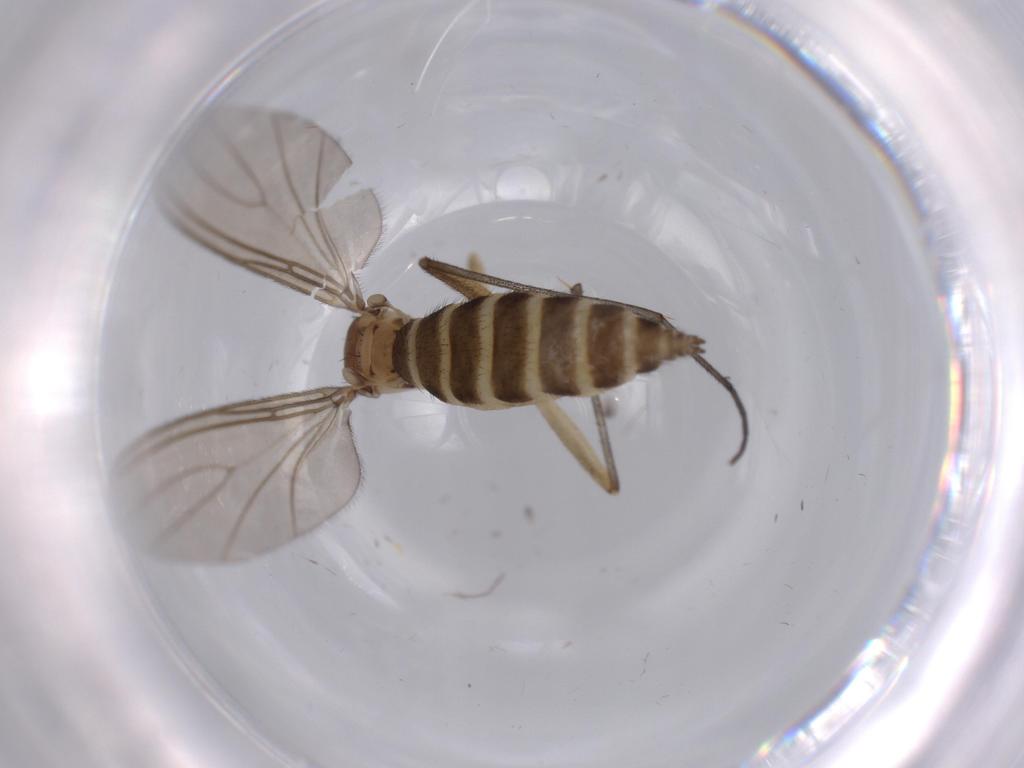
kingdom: Animalia
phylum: Arthropoda
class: Insecta
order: Diptera
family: Sciaridae
